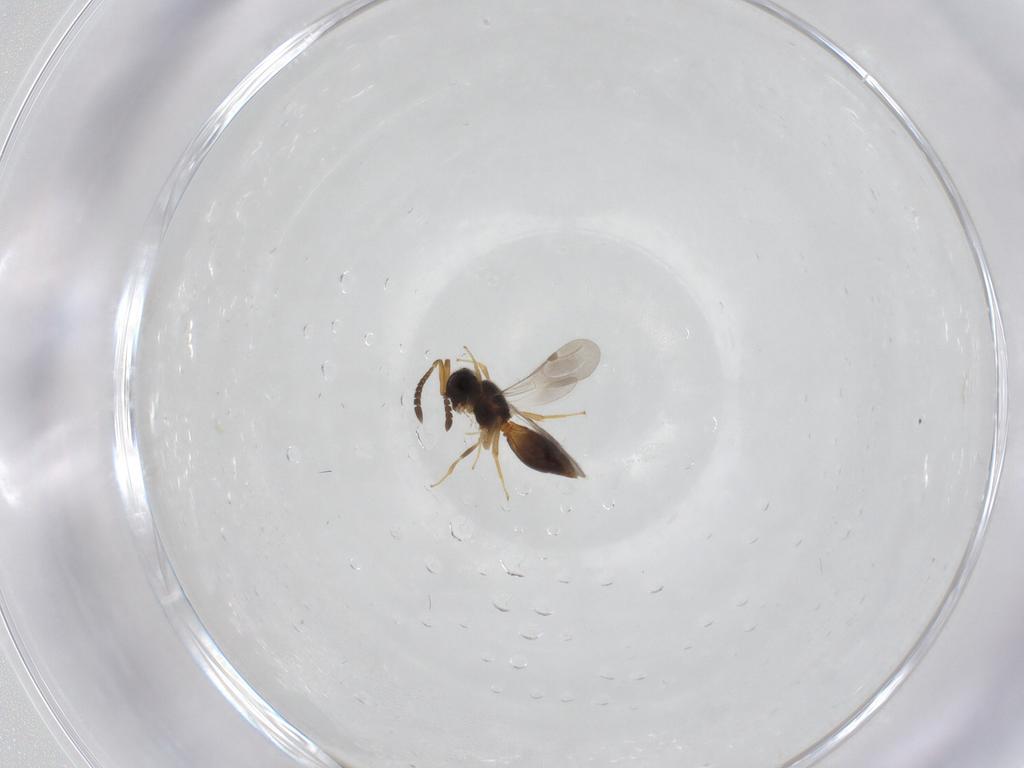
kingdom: Animalia
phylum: Arthropoda
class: Insecta
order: Hymenoptera
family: Megaspilidae
